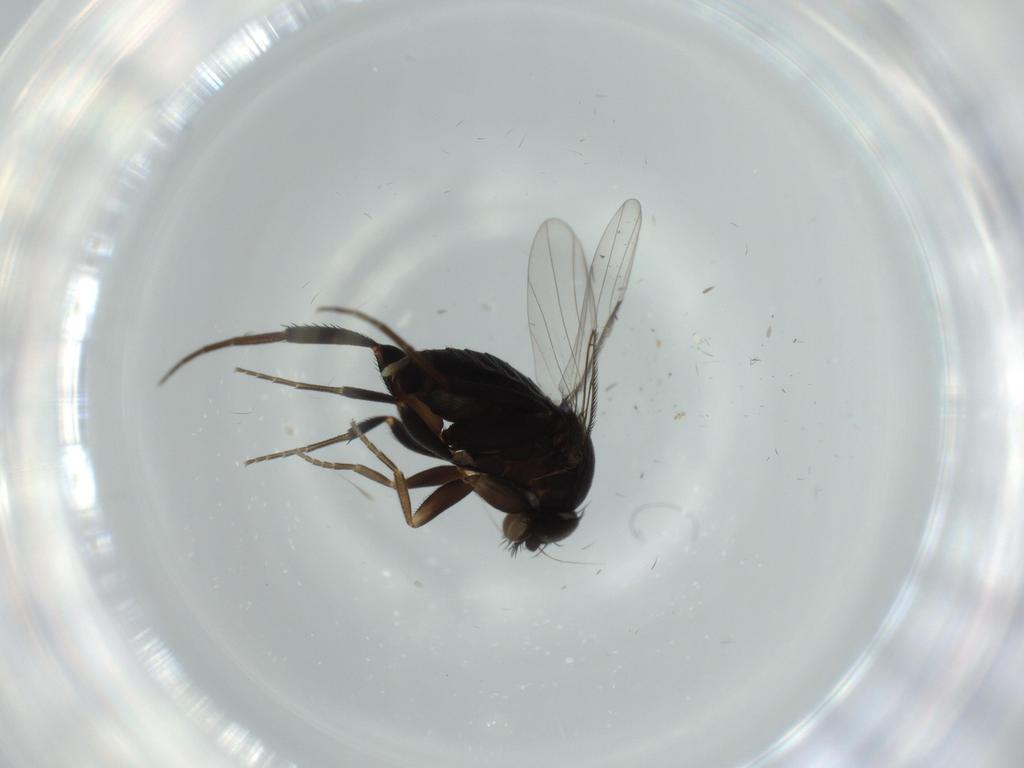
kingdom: Animalia
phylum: Arthropoda
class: Insecta
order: Diptera
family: Phoridae
